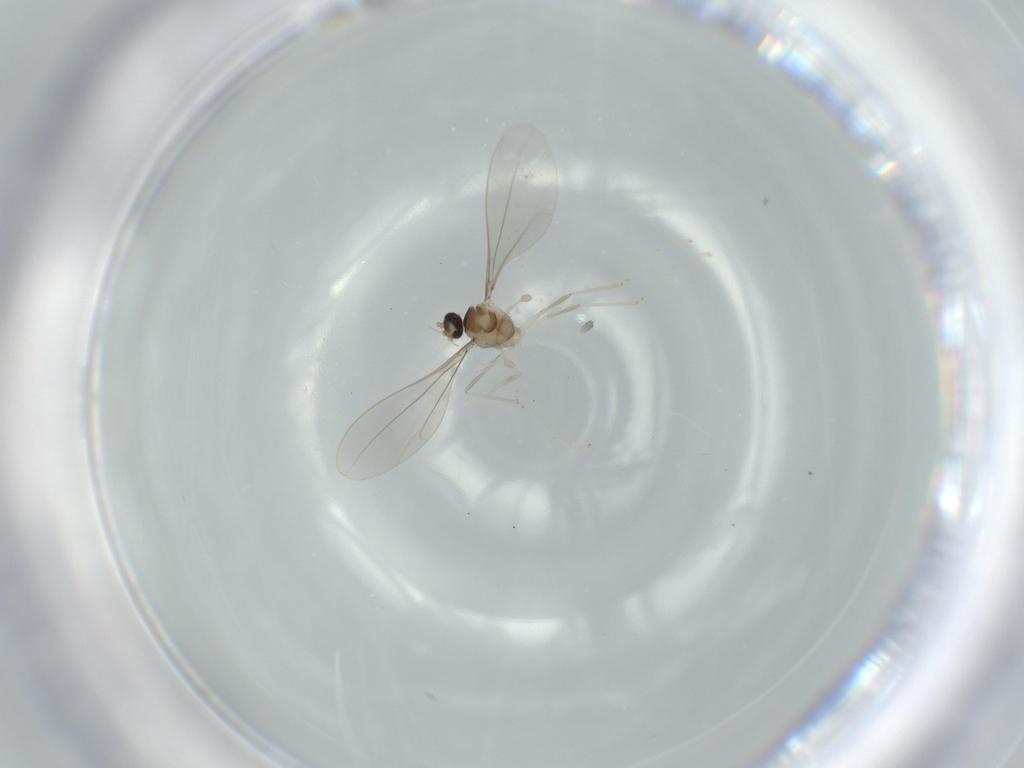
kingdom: Animalia
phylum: Arthropoda
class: Insecta
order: Diptera
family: Cecidomyiidae
